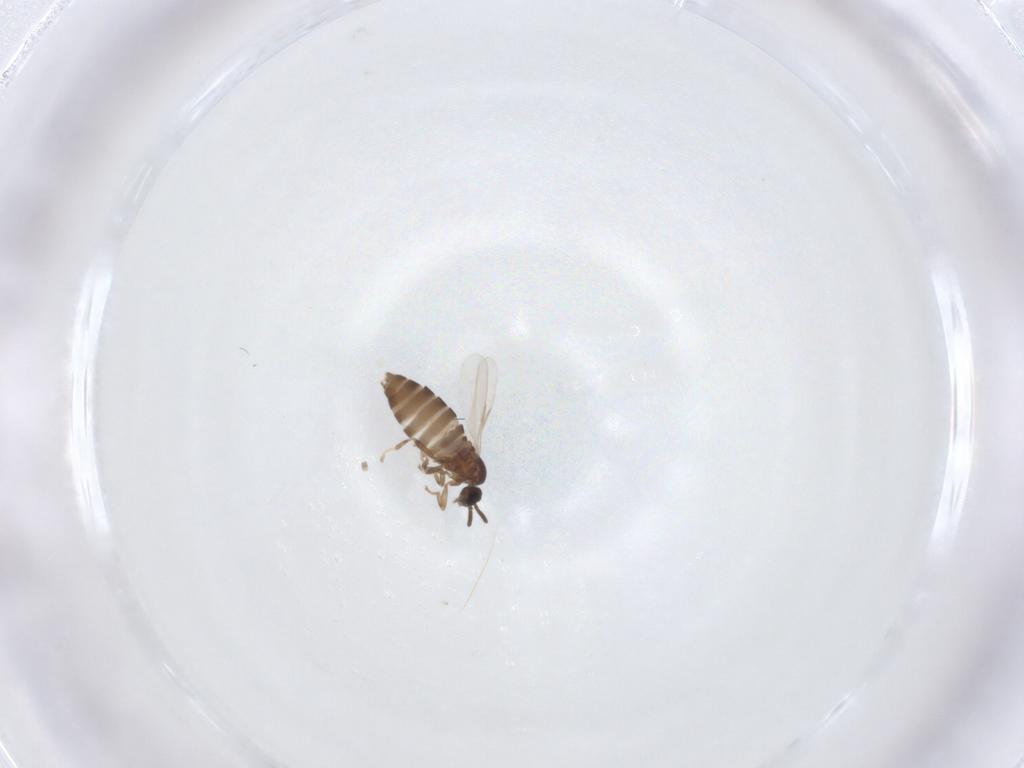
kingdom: Animalia
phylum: Arthropoda
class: Insecta
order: Diptera
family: Scatopsidae
